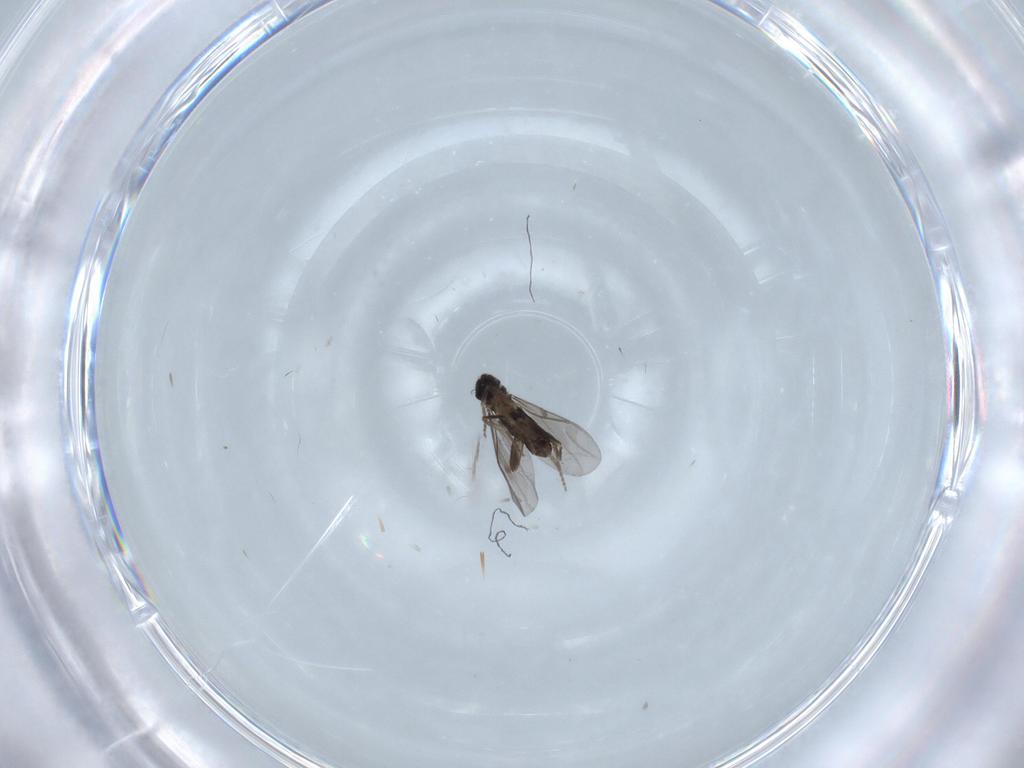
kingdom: Animalia
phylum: Arthropoda
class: Insecta
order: Diptera
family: Sciaridae
